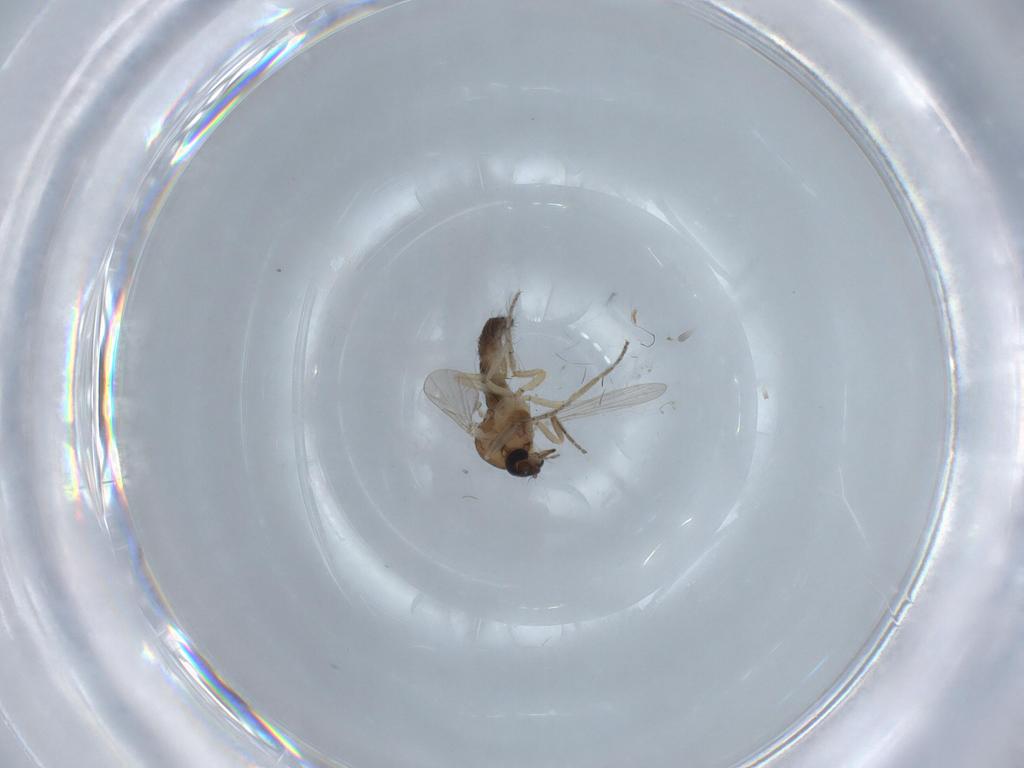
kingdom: Animalia
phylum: Arthropoda
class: Insecta
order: Diptera
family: Ceratopogonidae
